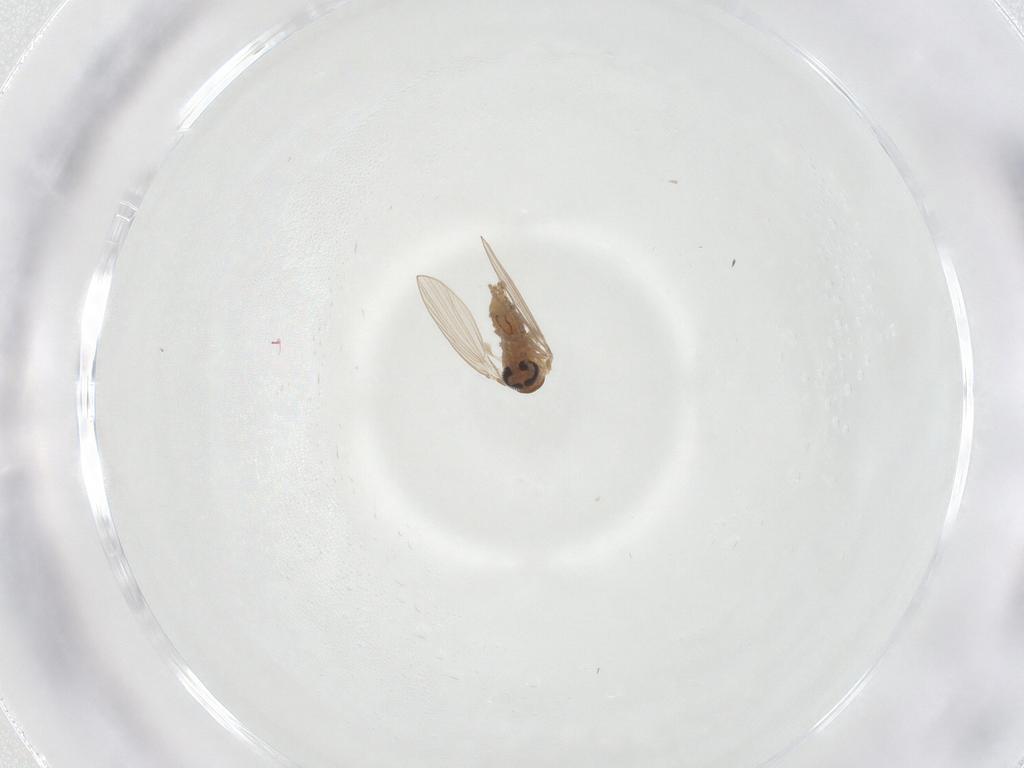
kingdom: Animalia
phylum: Arthropoda
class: Insecta
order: Diptera
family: Psychodidae
